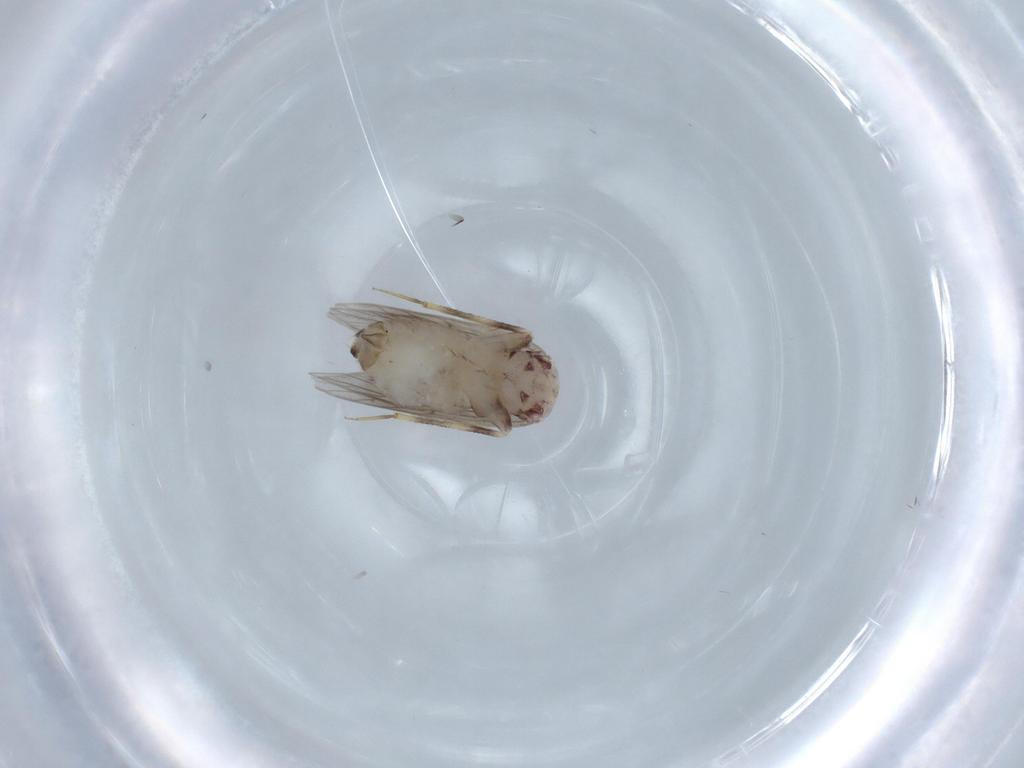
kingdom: Animalia
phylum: Arthropoda
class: Insecta
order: Psocodea
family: Lepidopsocidae
